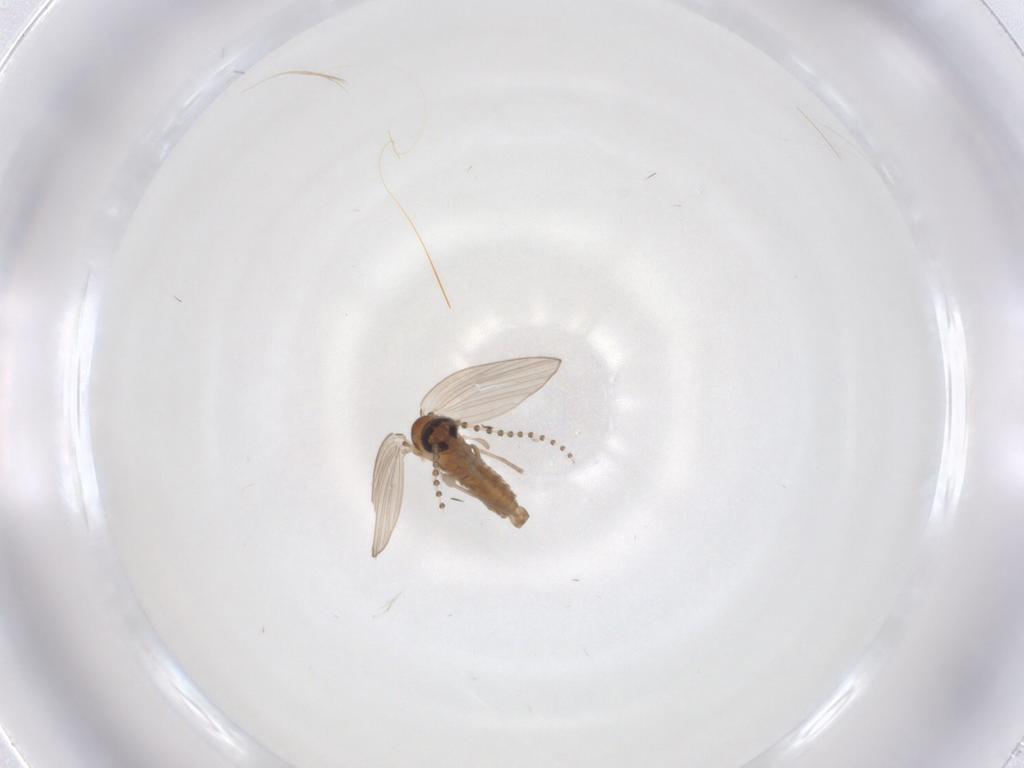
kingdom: Animalia
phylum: Arthropoda
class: Insecta
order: Diptera
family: Psychodidae
